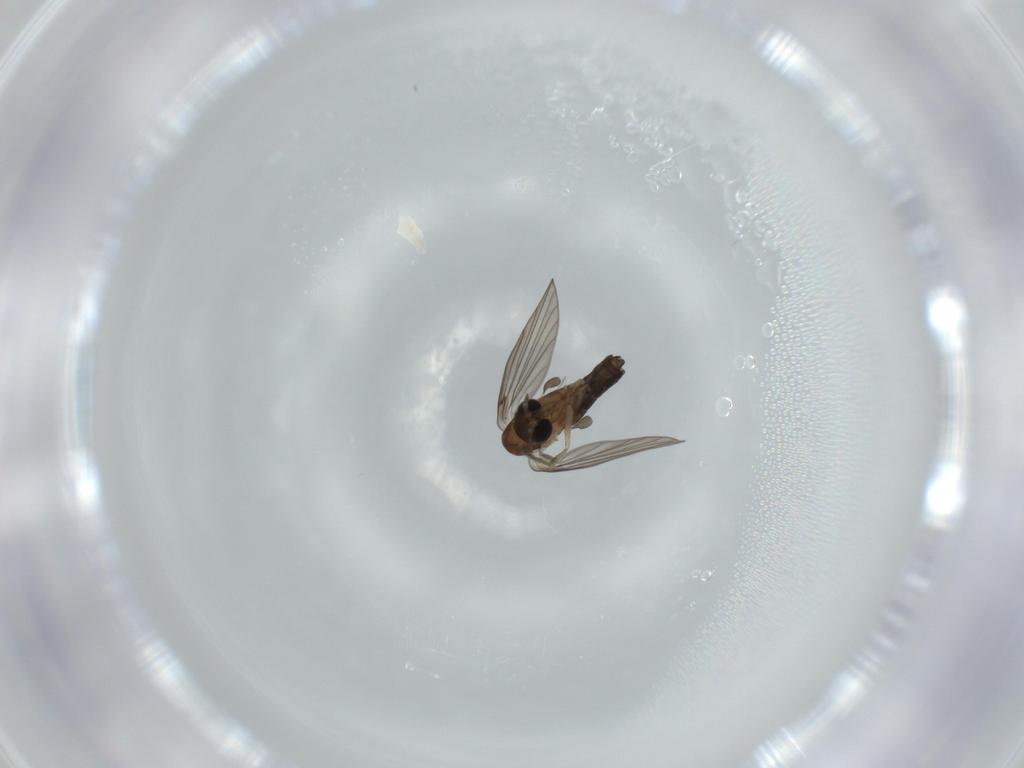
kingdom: Animalia
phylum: Arthropoda
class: Insecta
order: Diptera
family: Psychodidae
